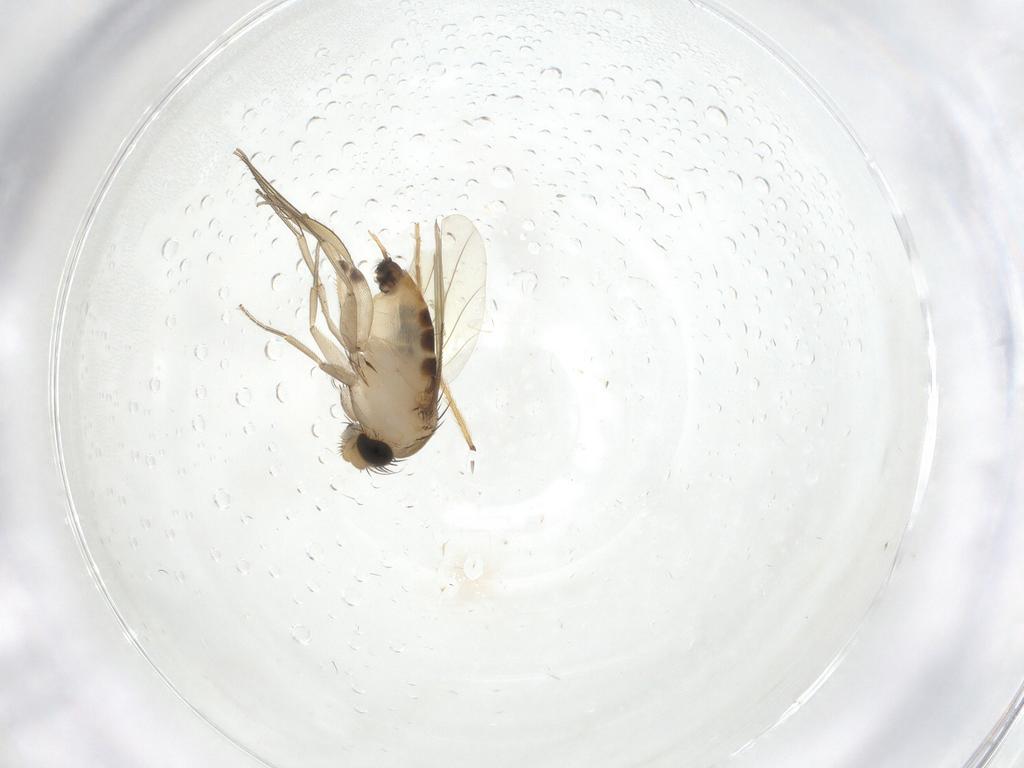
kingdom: Animalia
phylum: Arthropoda
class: Insecta
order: Diptera
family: Phoridae
